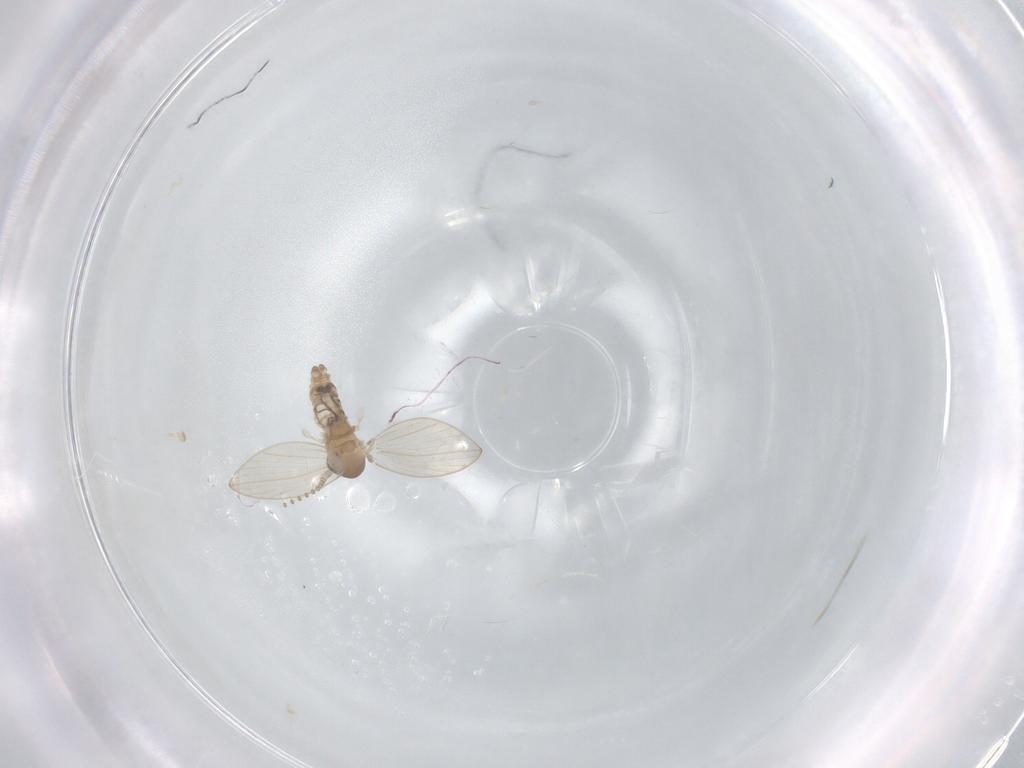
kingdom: Animalia
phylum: Arthropoda
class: Insecta
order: Diptera
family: Psychodidae
